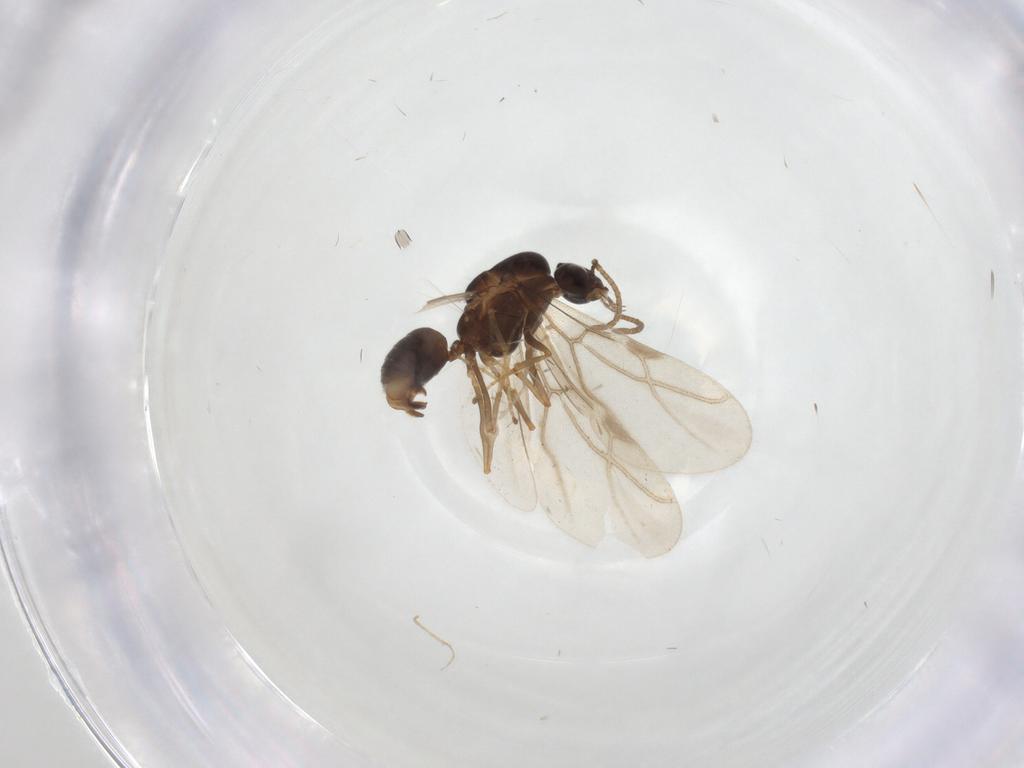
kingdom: Animalia
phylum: Arthropoda
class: Insecta
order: Hymenoptera
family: Formicidae
